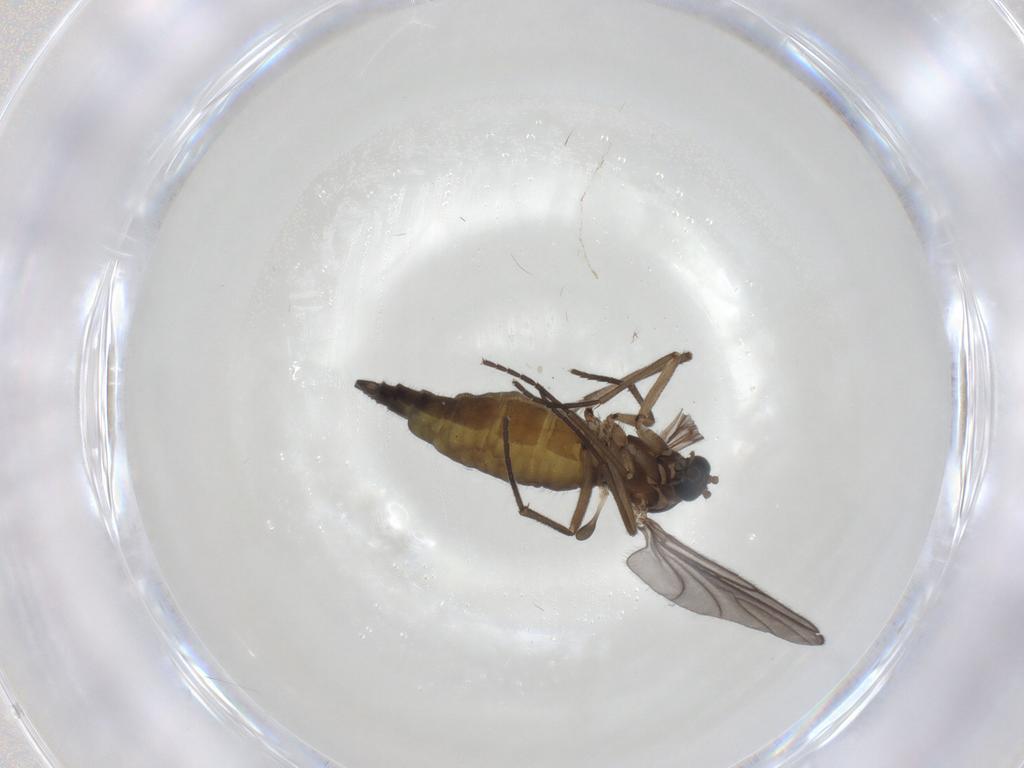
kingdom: Animalia
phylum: Arthropoda
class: Insecta
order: Diptera
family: Sciaridae
